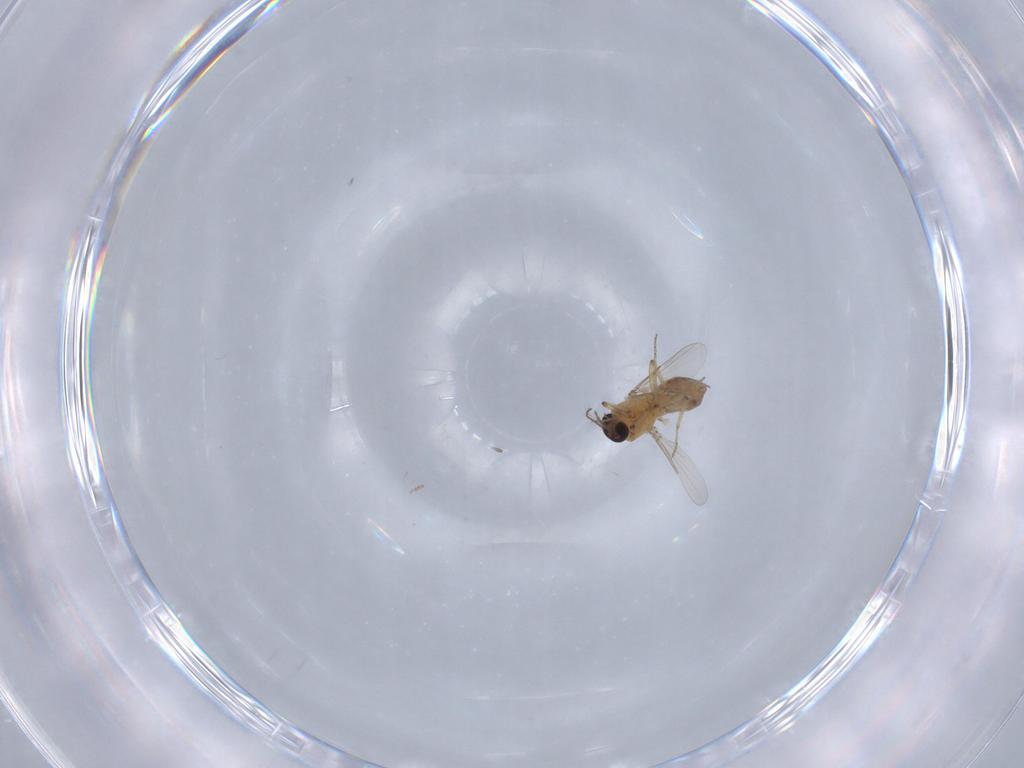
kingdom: Animalia
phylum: Arthropoda
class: Insecta
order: Diptera
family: Ceratopogonidae
